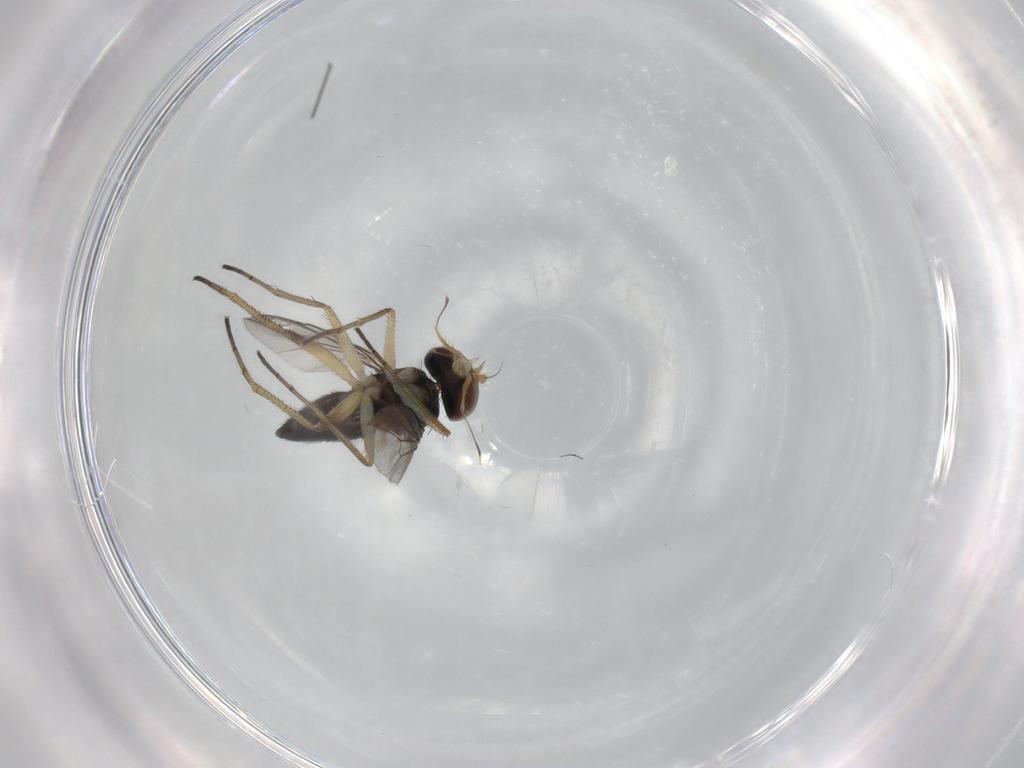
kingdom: Animalia
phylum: Arthropoda
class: Insecta
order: Diptera
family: Dolichopodidae
